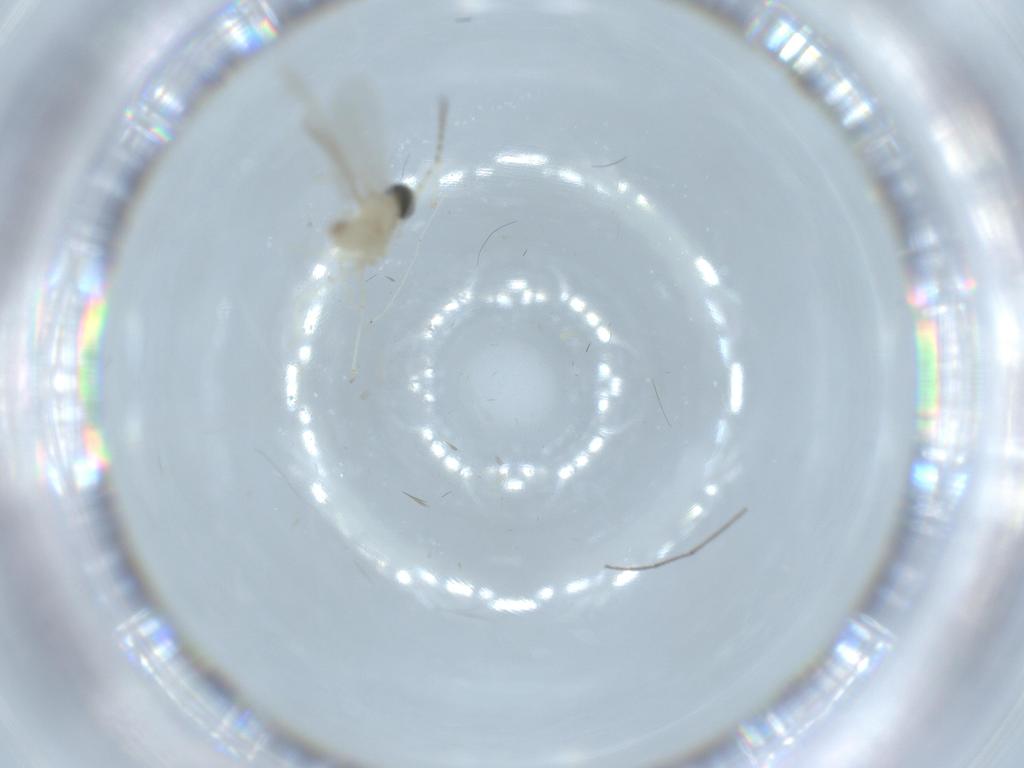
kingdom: Animalia
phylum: Arthropoda
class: Insecta
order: Diptera
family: Cecidomyiidae
